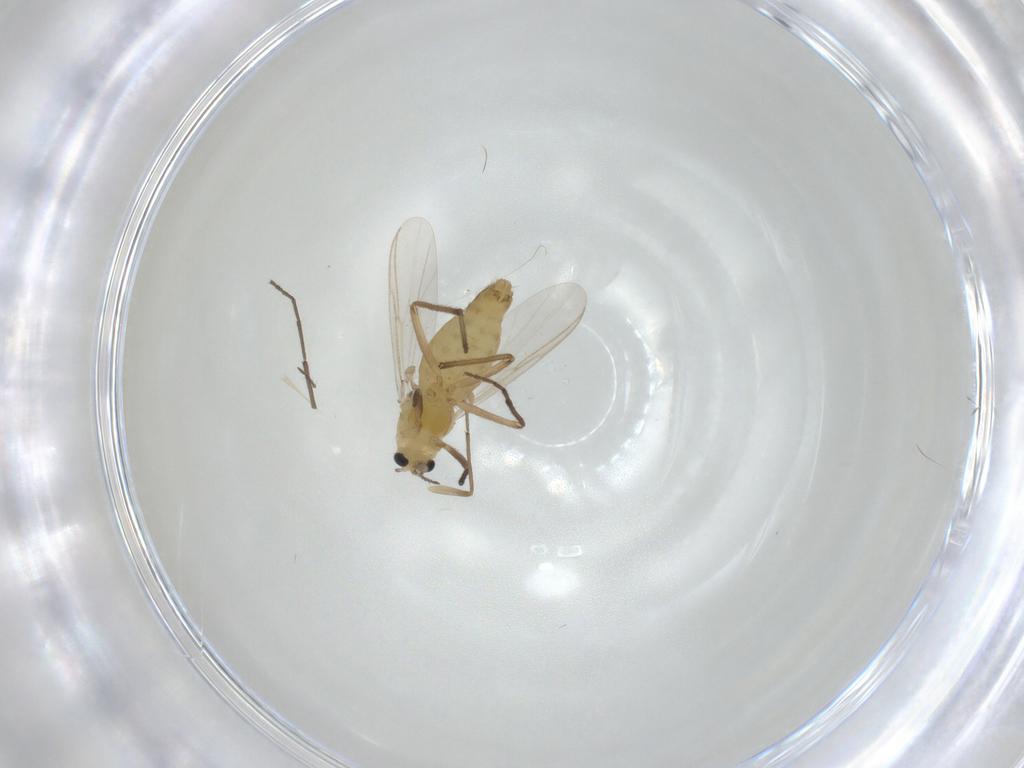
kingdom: Animalia
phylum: Arthropoda
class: Insecta
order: Diptera
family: Chironomidae
